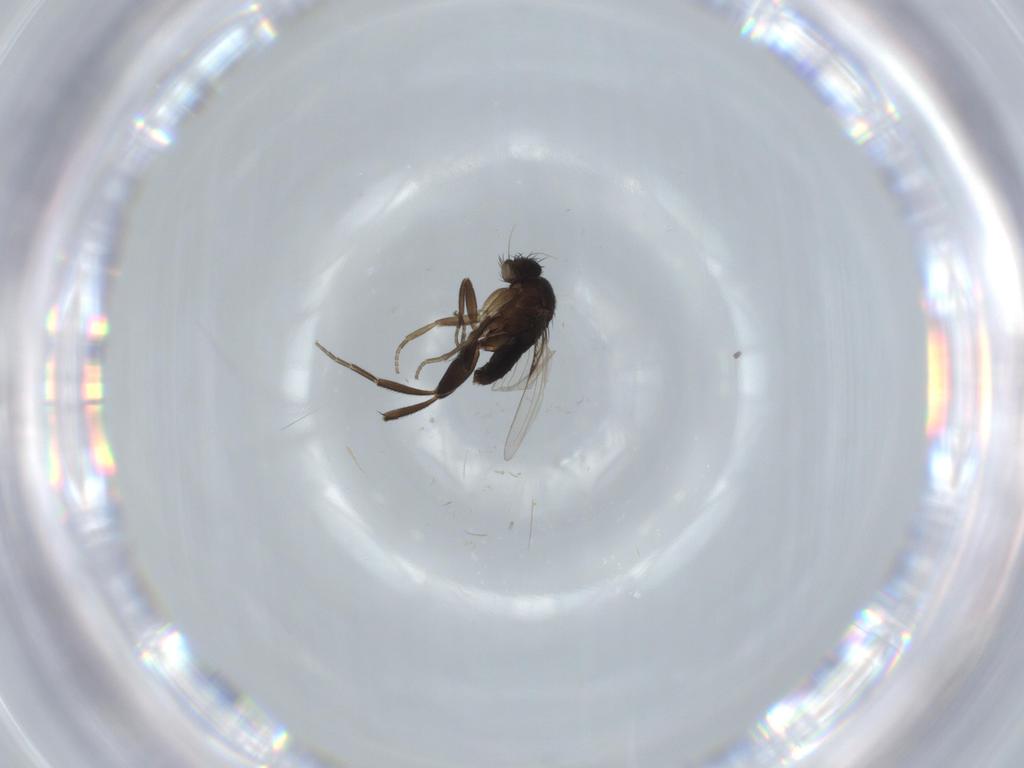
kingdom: Animalia
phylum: Arthropoda
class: Insecta
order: Diptera
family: Phoridae
